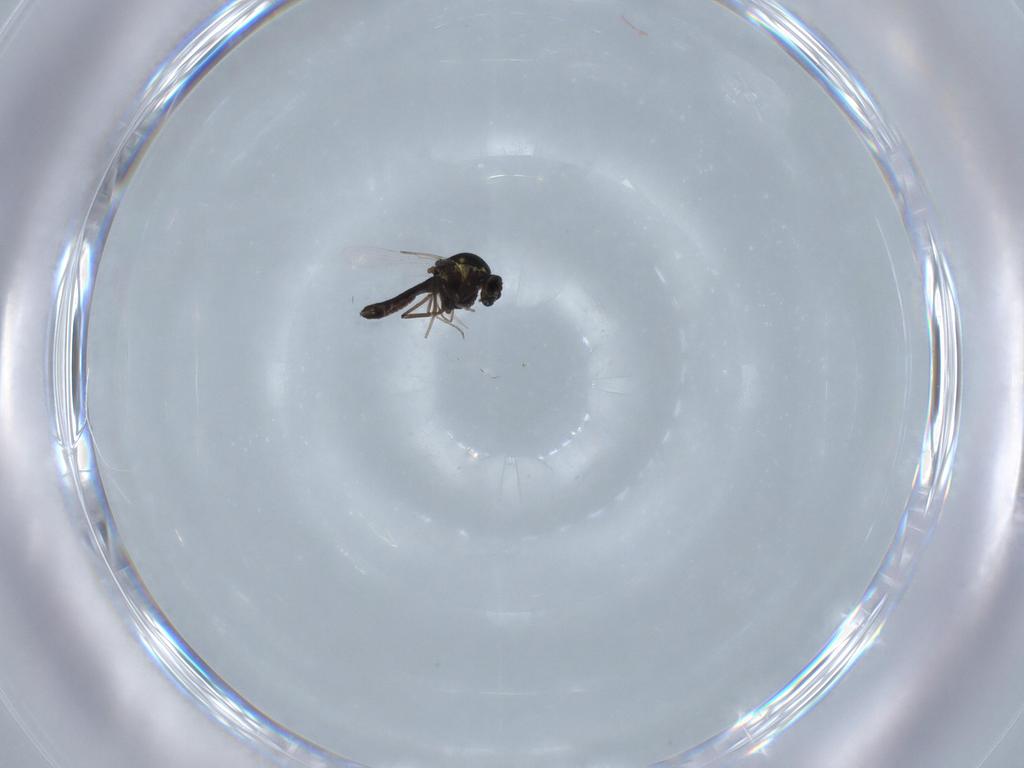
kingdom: Animalia
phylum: Arthropoda
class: Insecta
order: Diptera
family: Ceratopogonidae
